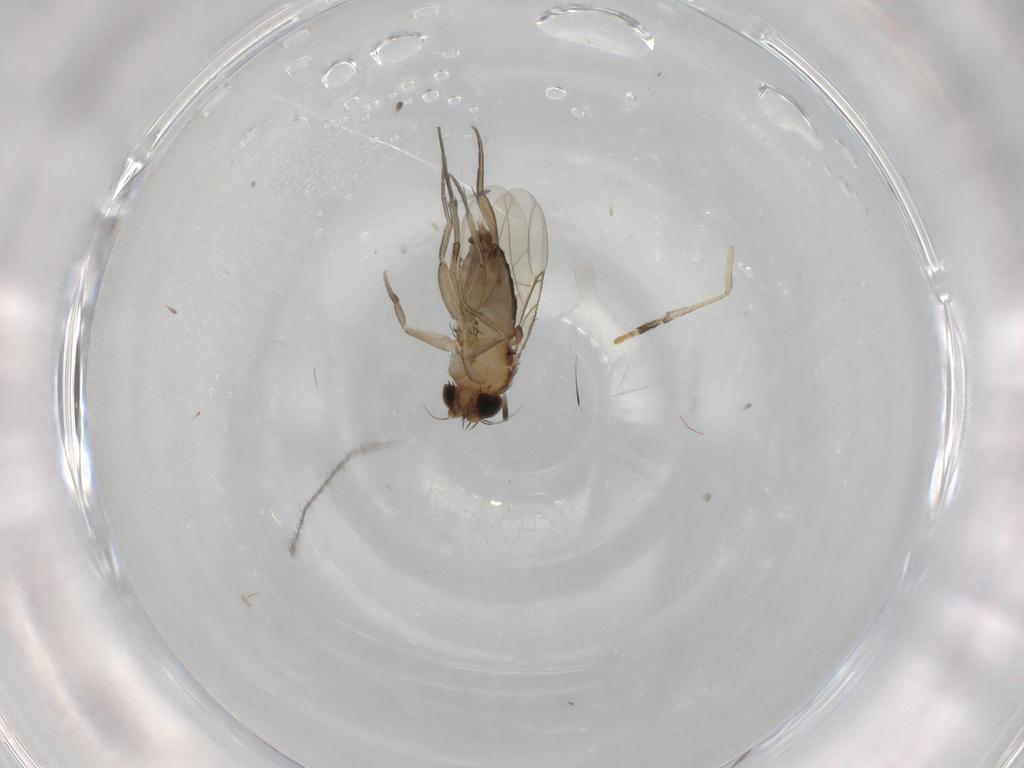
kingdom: Animalia
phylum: Arthropoda
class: Insecta
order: Diptera
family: Phoridae
